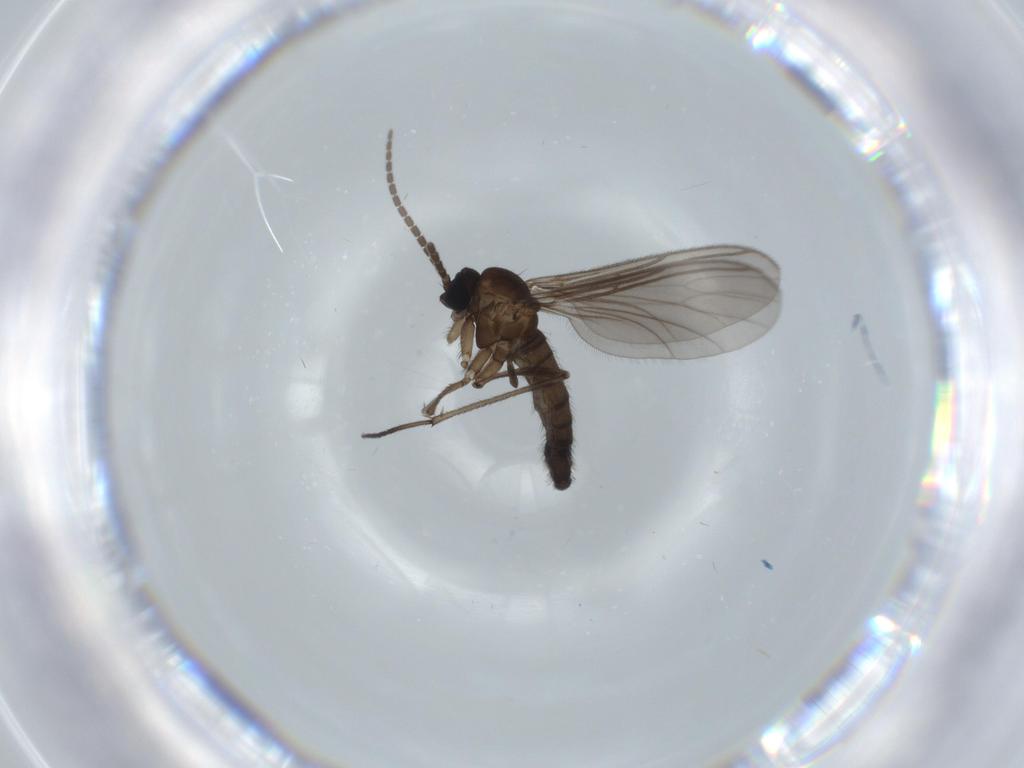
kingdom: Animalia
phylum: Arthropoda
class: Insecta
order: Diptera
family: Sciaridae
